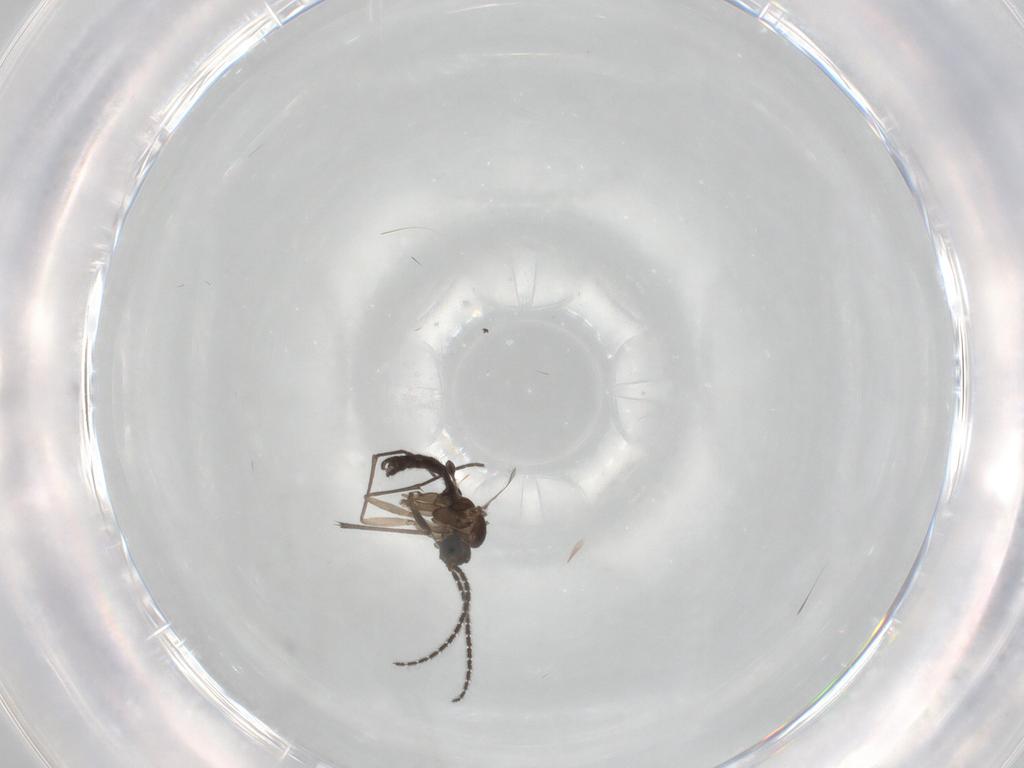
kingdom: Animalia
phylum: Arthropoda
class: Insecta
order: Diptera
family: Sciaridae
